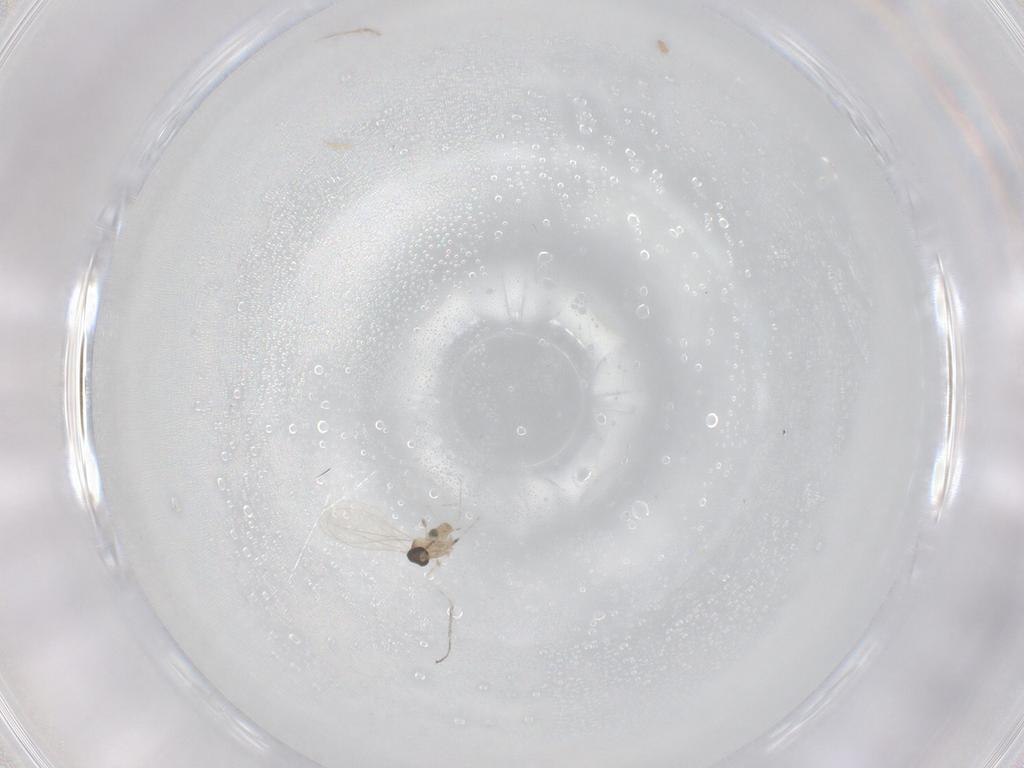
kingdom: Animalia
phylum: Arthropoda
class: Insecta
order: Diptera
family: Cecidomyiidae
